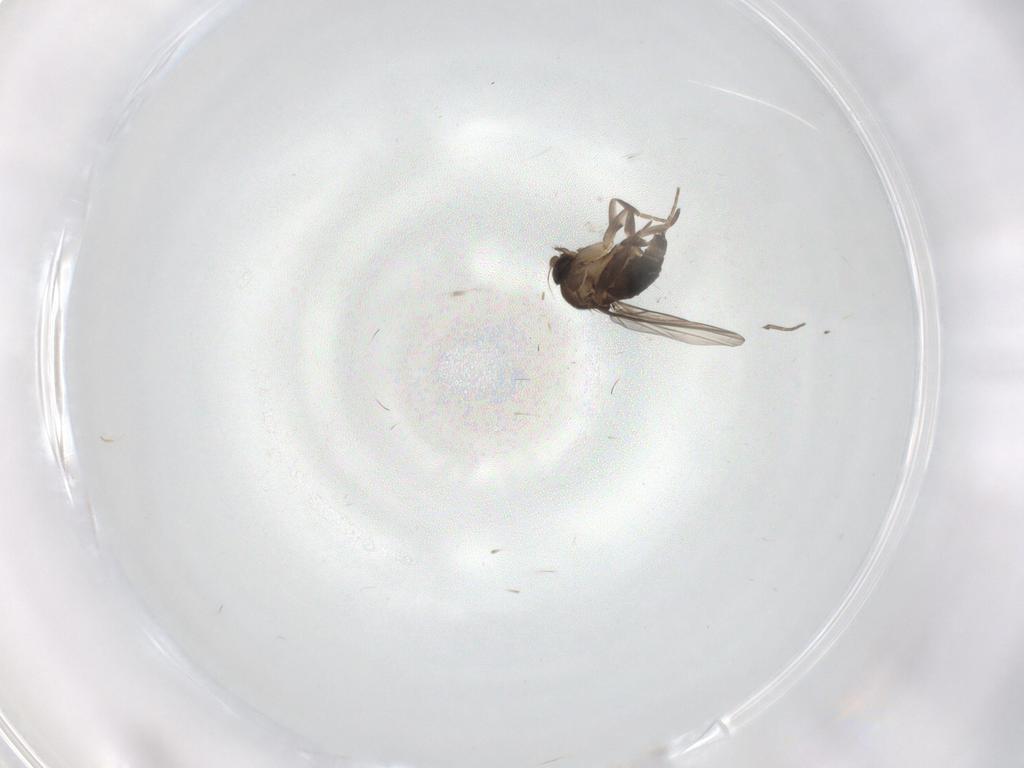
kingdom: Animalia
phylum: Arthropoda
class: Insecta
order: Diptera
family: Phoridae
